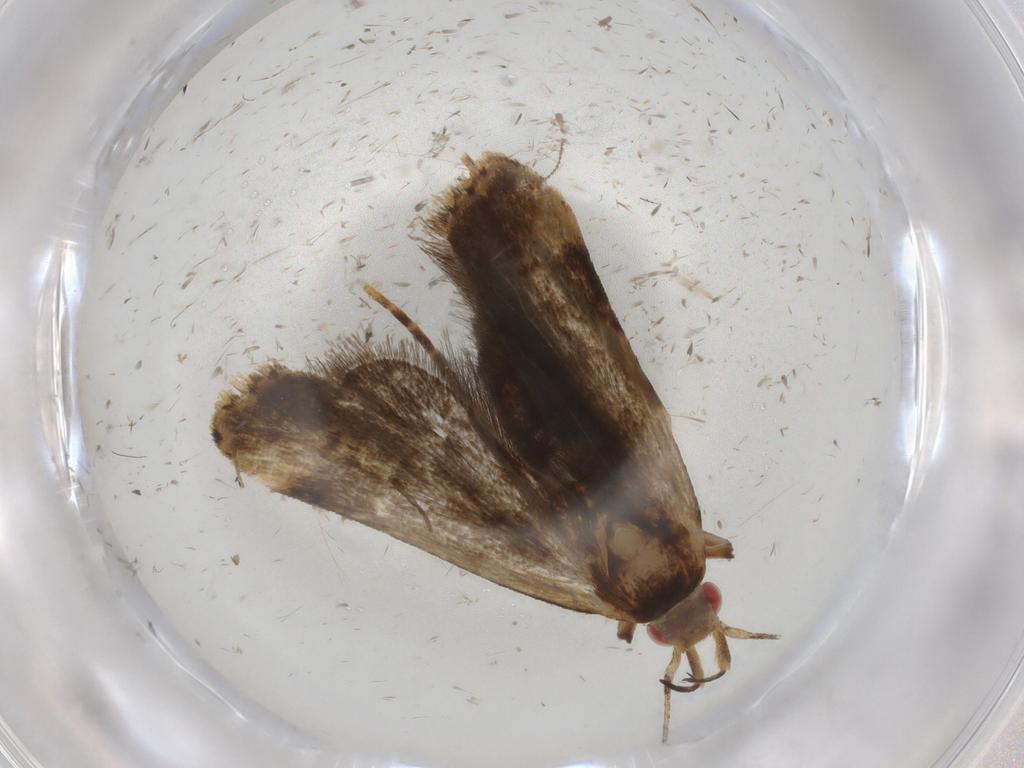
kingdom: Animalia
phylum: Arthropoda
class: Insecta
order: Lepidoptera
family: Gelechiidae
